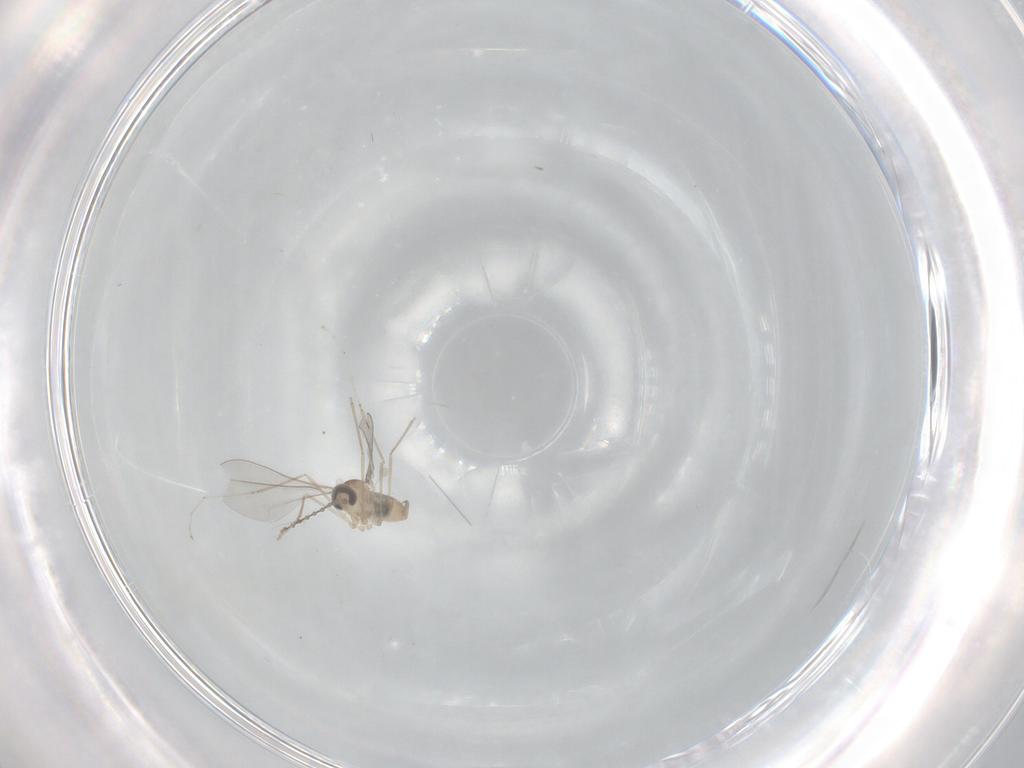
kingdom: Animalia
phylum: Arthropoda
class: Insecta
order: Diptera
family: Cecidomyiidae
